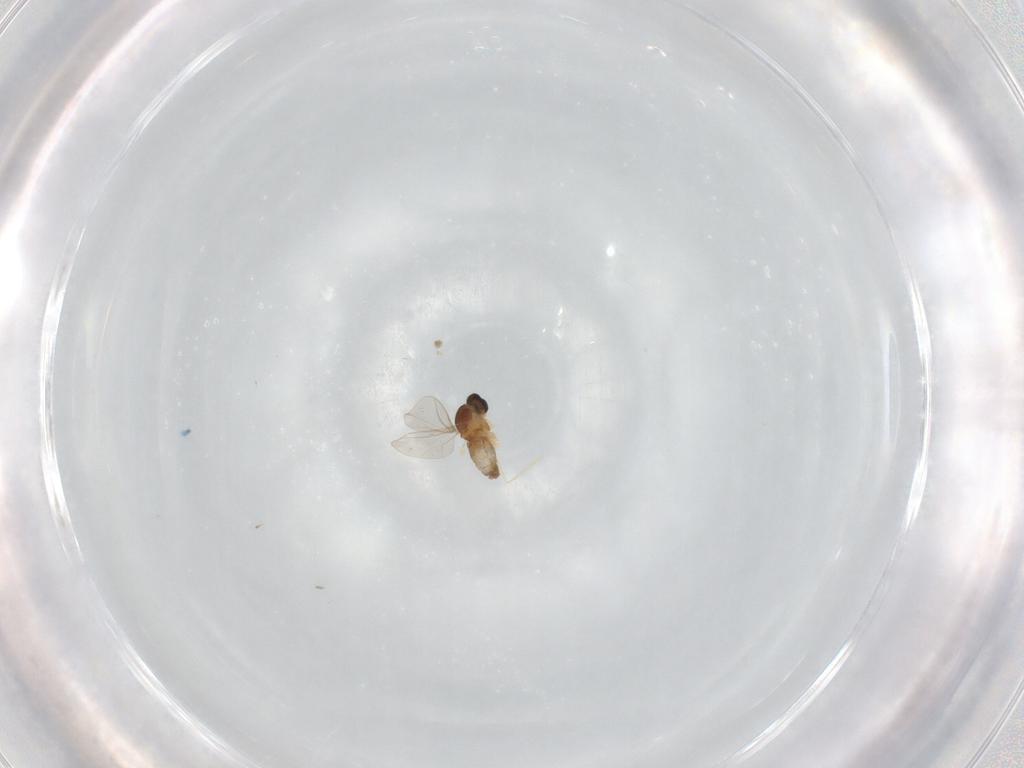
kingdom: Animalia
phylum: Arthropoda
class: Insecta
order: Diptera
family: Cecidomyiidae
